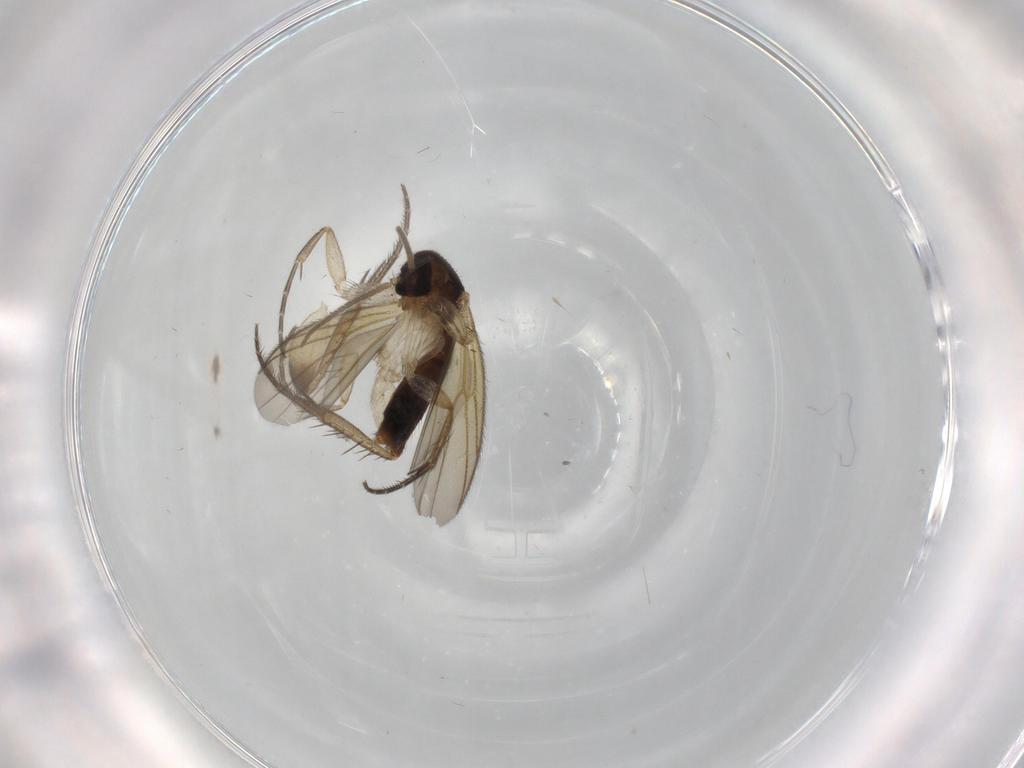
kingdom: Animalia
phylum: Arthropoda
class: Insecta
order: Diptera
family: Mycetophilidae
